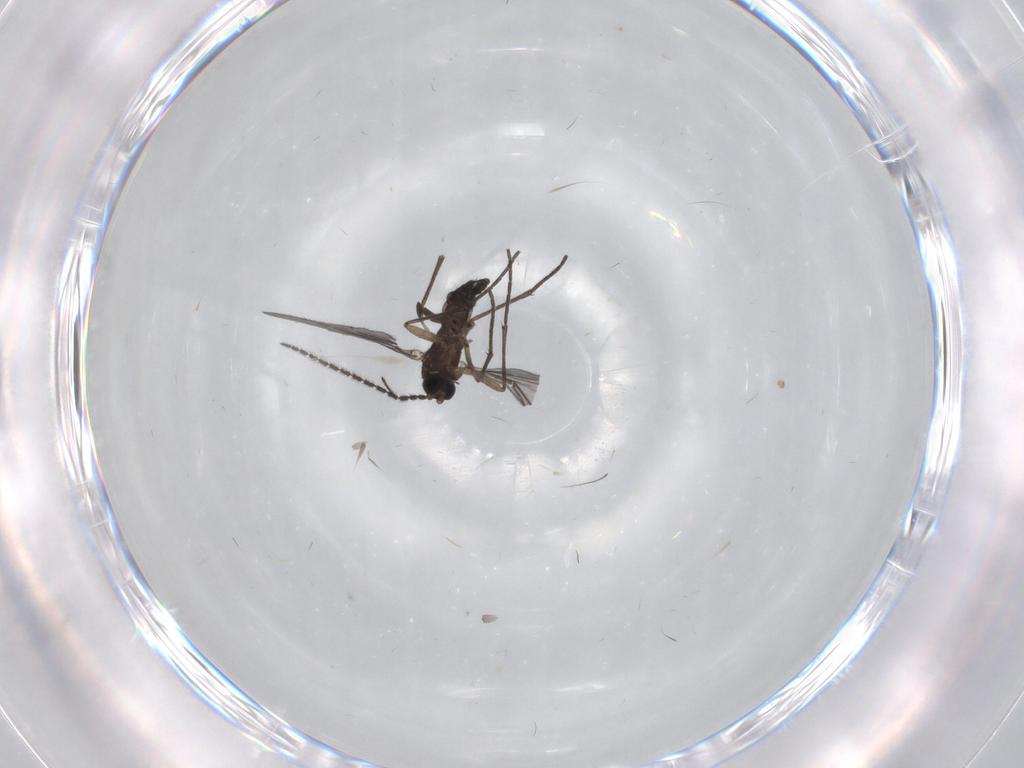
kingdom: Animalia
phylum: Arthropoda
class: Insecta
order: Diptera
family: Sciaridae
